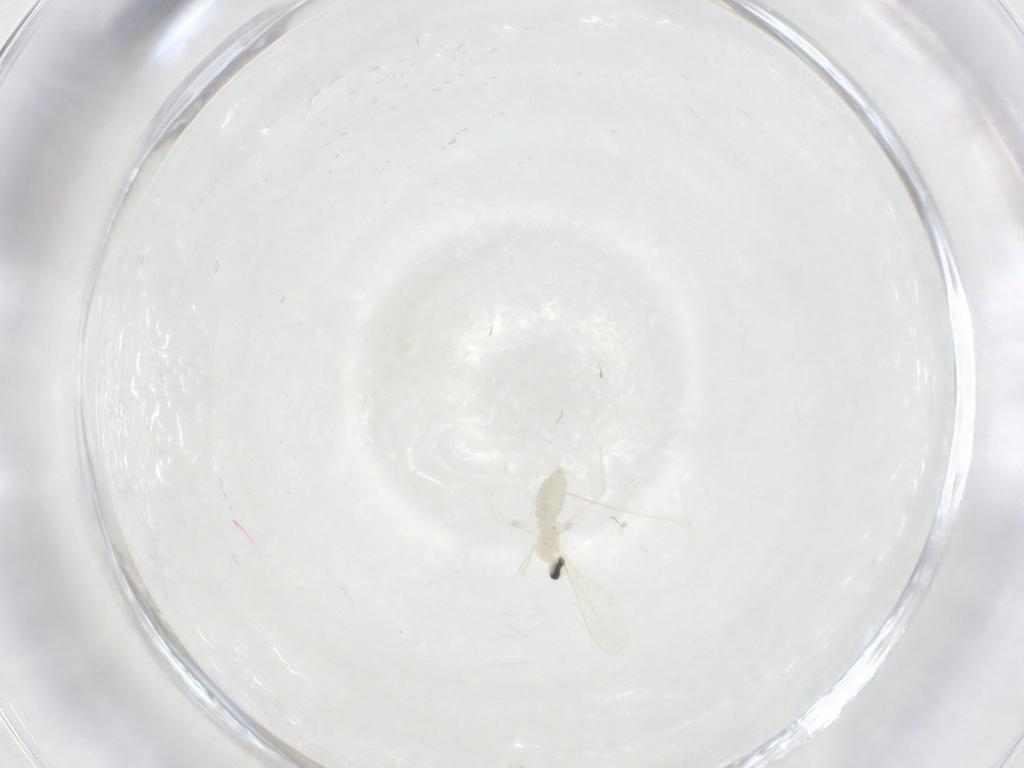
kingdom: Animalia
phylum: Arthropoda
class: Insecta
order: Diptera
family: Cecidomyiidae
